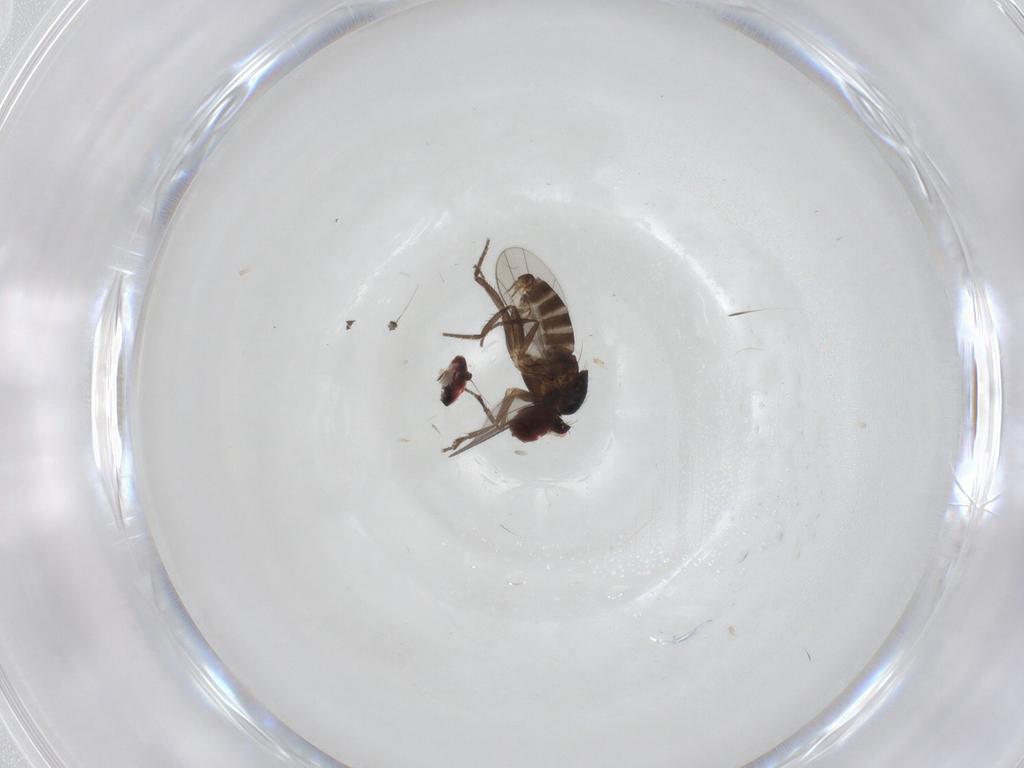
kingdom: Animalia
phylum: Arthropoda
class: Insecta
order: Diptera
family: Dolichopodidae
